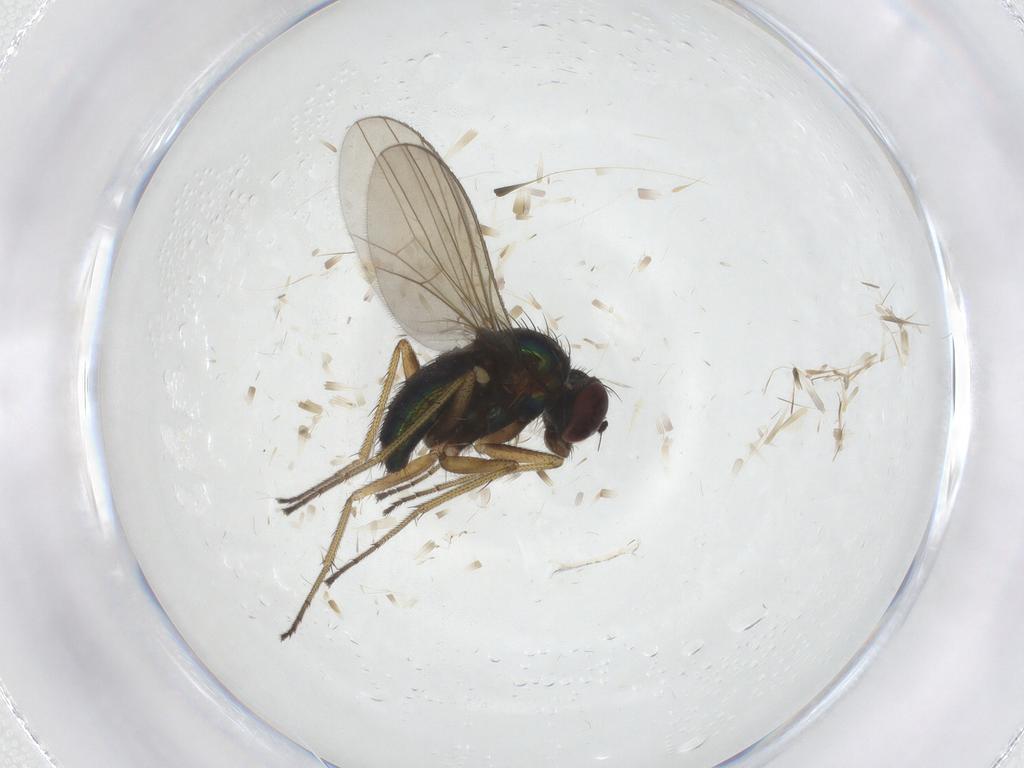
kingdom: Animalia
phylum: Arthropoda
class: Insecta
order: Diptera
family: Dolichopodidae
